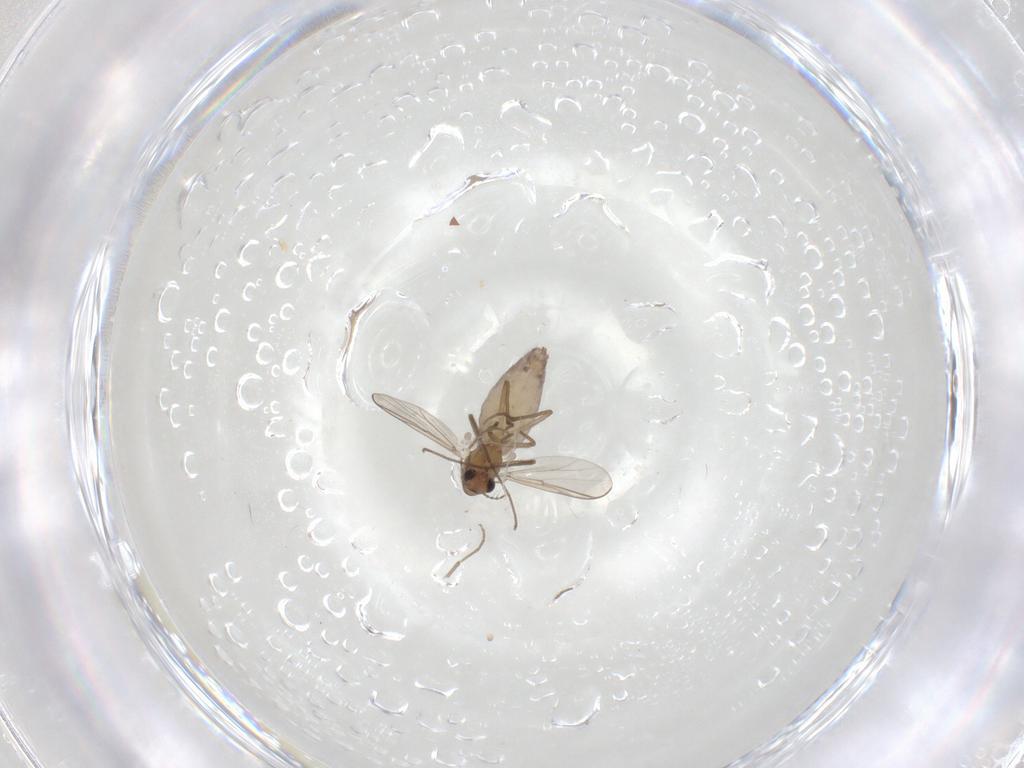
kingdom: Animalia
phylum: Arthropoda
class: Insecta
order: Diptera
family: Chironomidae
